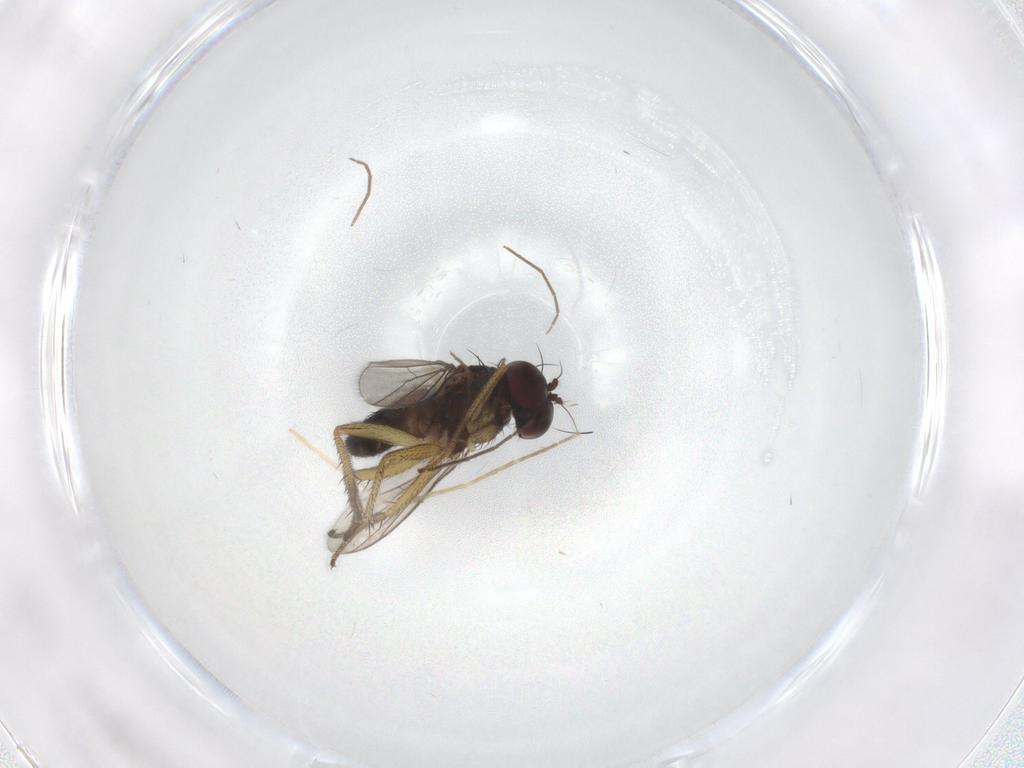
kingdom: Animalia
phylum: Arthropoda
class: Insecta
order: Diptera
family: Chironomidae
